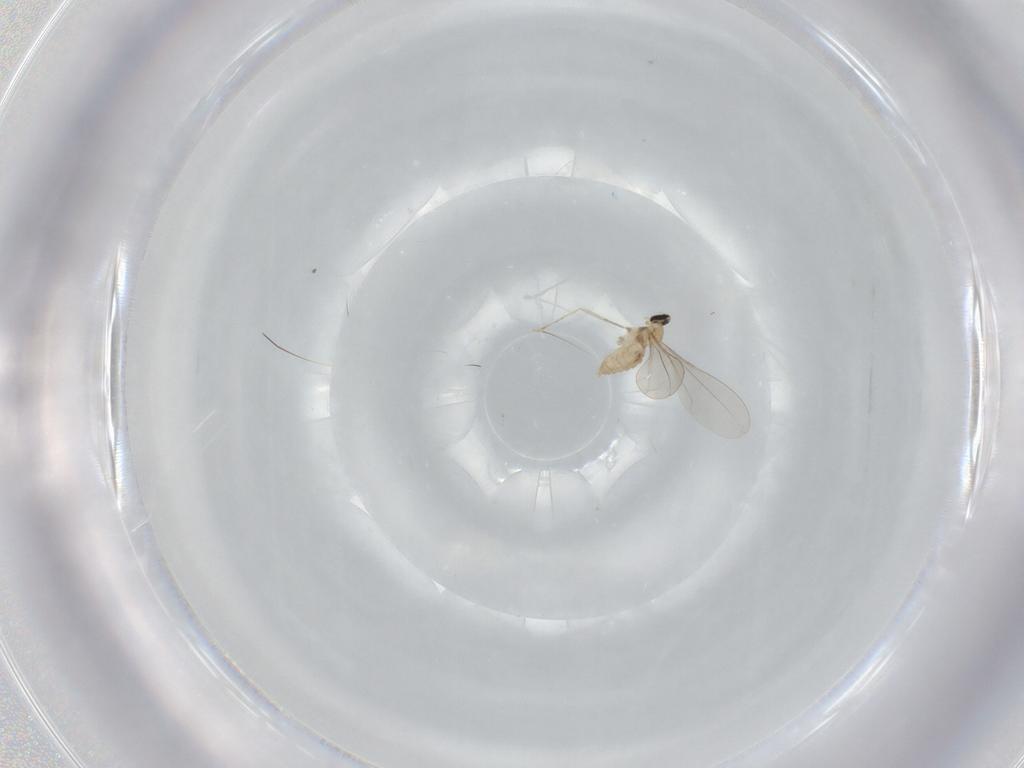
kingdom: Animalia
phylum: Arthropoda
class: Insecta
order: Diptera
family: Cecidomyiidae
